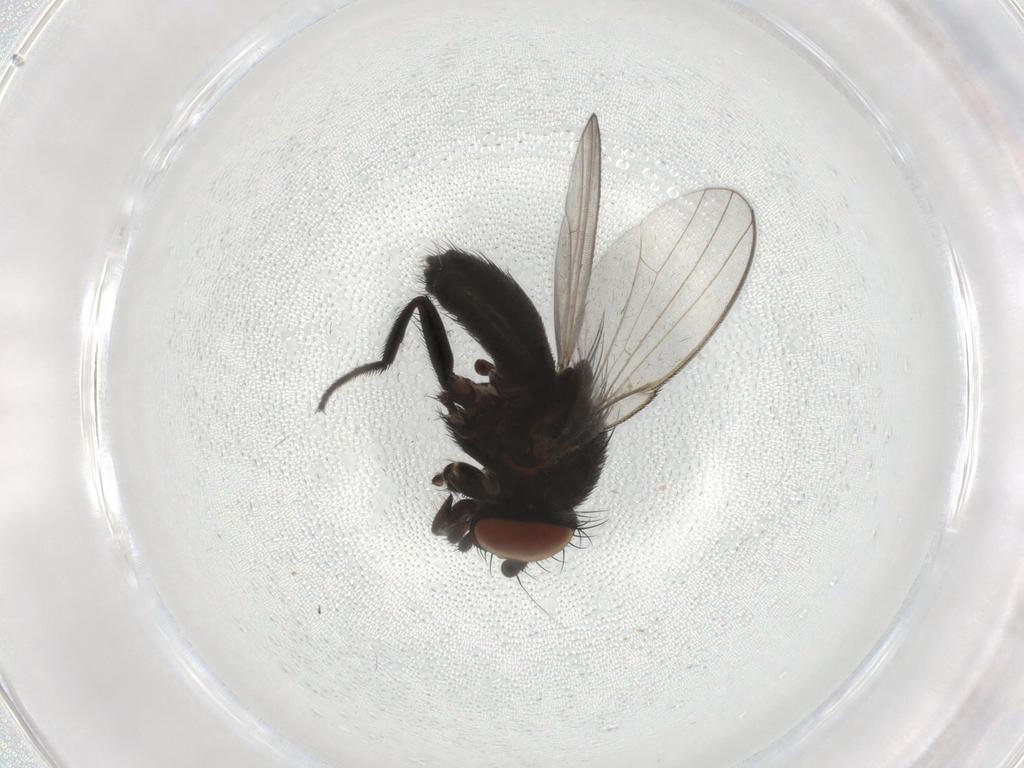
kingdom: Animalia
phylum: Arthropoda
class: Insecta
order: Diptera
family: Milichiidae
